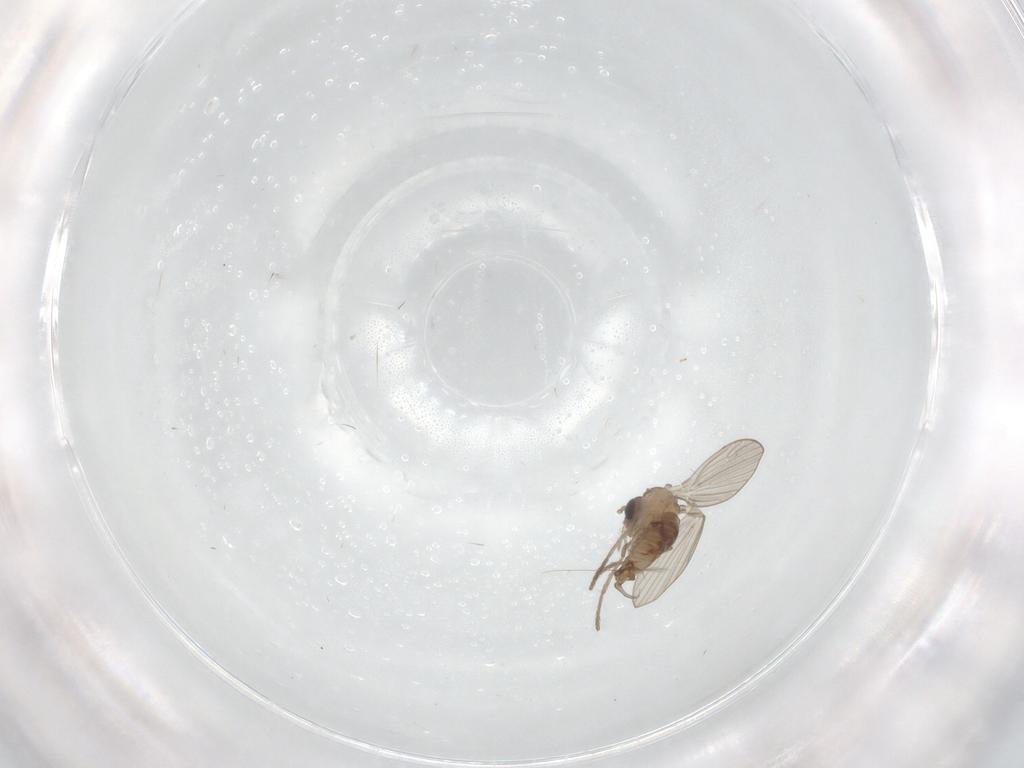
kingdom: Animalia
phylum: Arthropoda
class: Insecta
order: Diptera
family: Psychodidae
